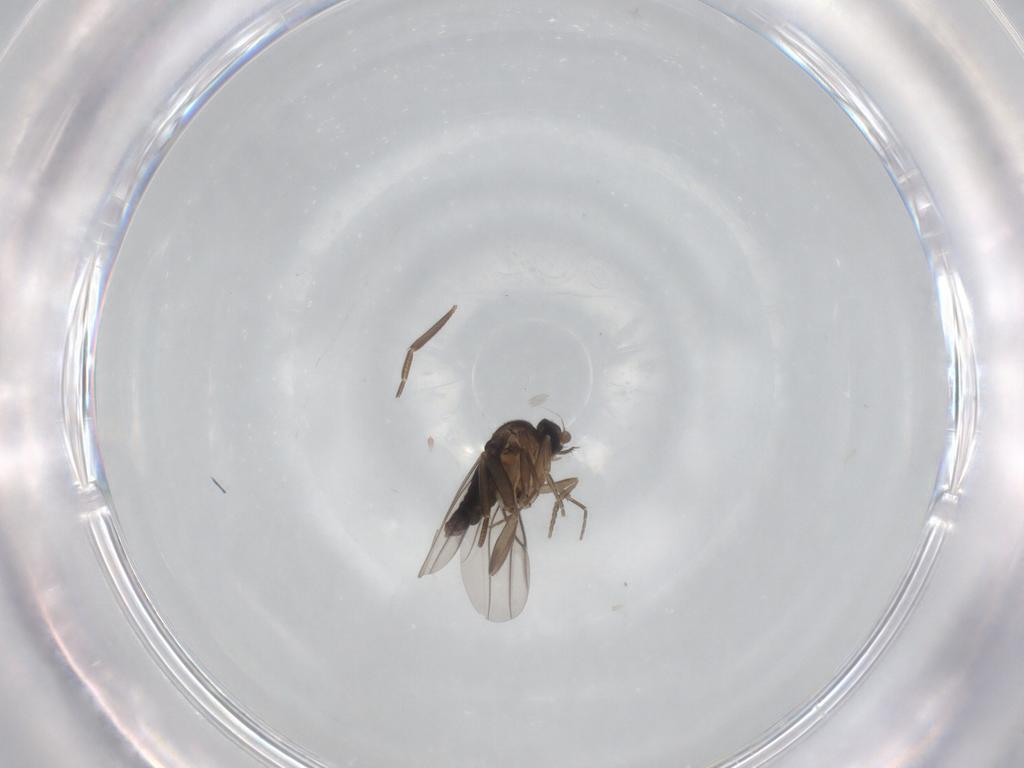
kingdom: Animalia
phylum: Arthropoda
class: Insecta
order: Diptera
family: Phoridae
